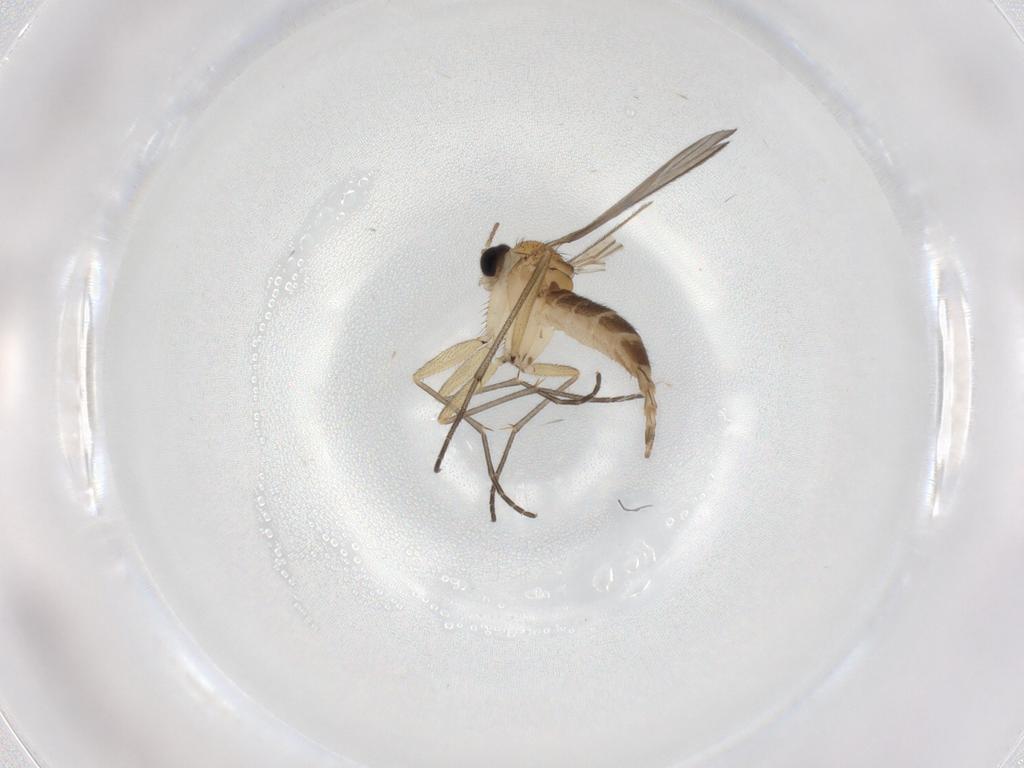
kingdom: Animalia
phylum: Arthropoda
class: Insecta
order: Diptera
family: Sciaridae
